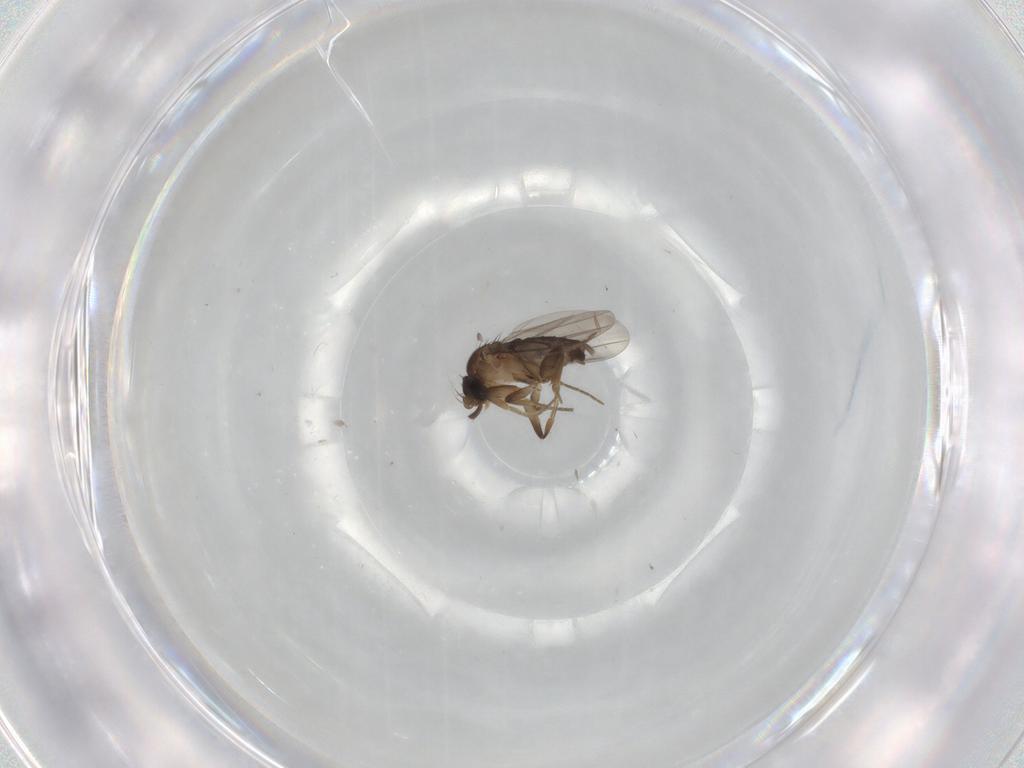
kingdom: Animalia
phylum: Arthropoda
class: Insecta
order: Diptera
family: Phoridae
